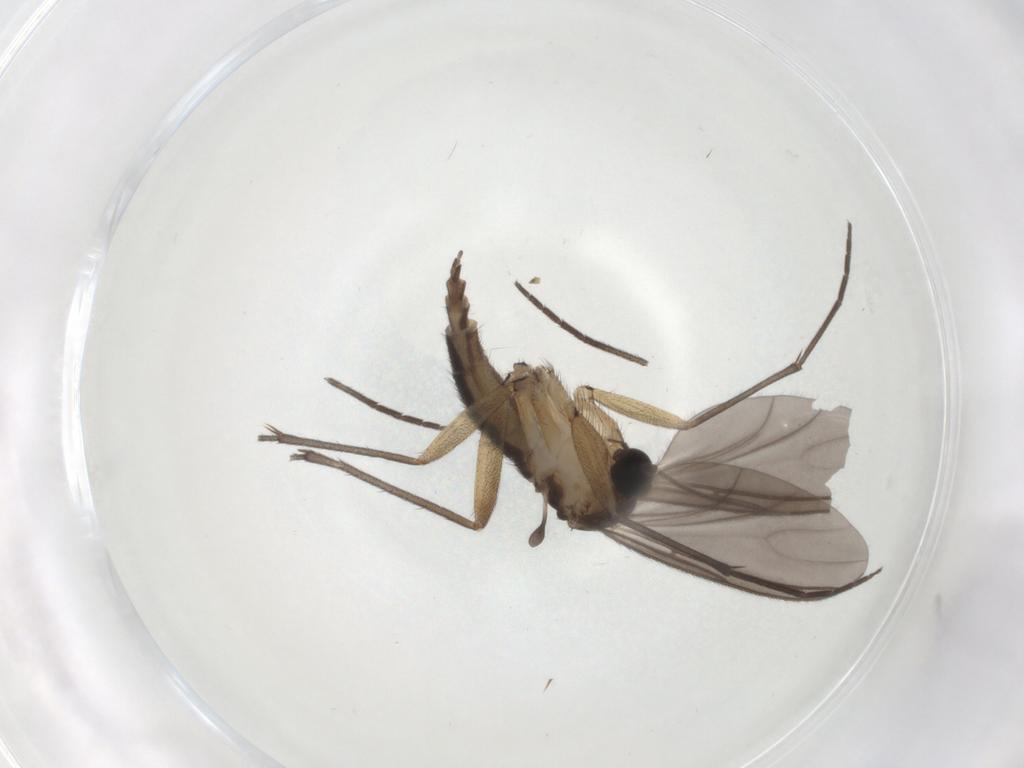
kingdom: Animalia
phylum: Arthropoda
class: Insecta
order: Diptera
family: Sciaridae
